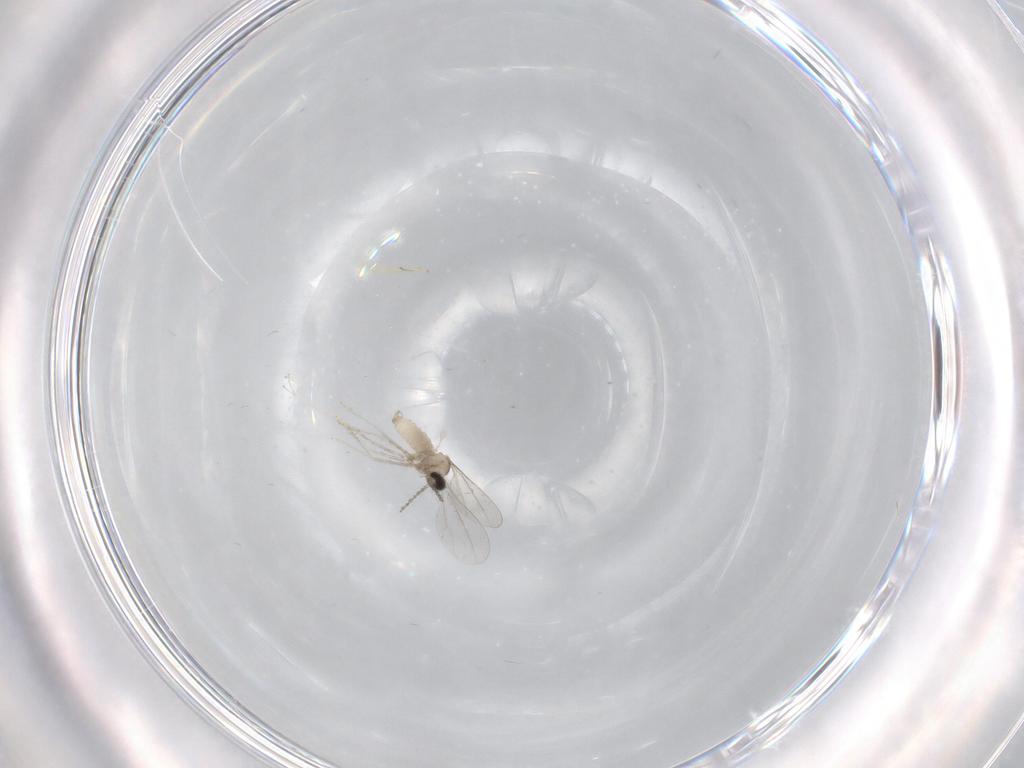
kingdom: Animalia
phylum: Arthropoda
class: Insecta
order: Diptera
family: Chironomidae
